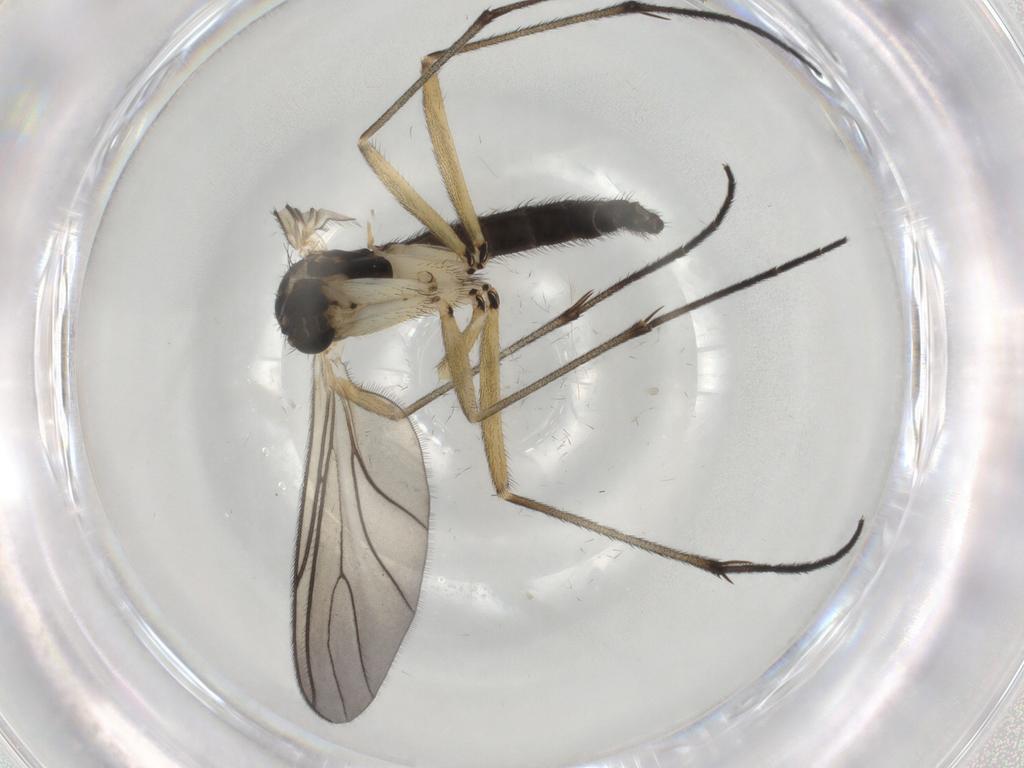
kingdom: Animalia
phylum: Arthropoda
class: Insecta
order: Diptera
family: Sciaridae
